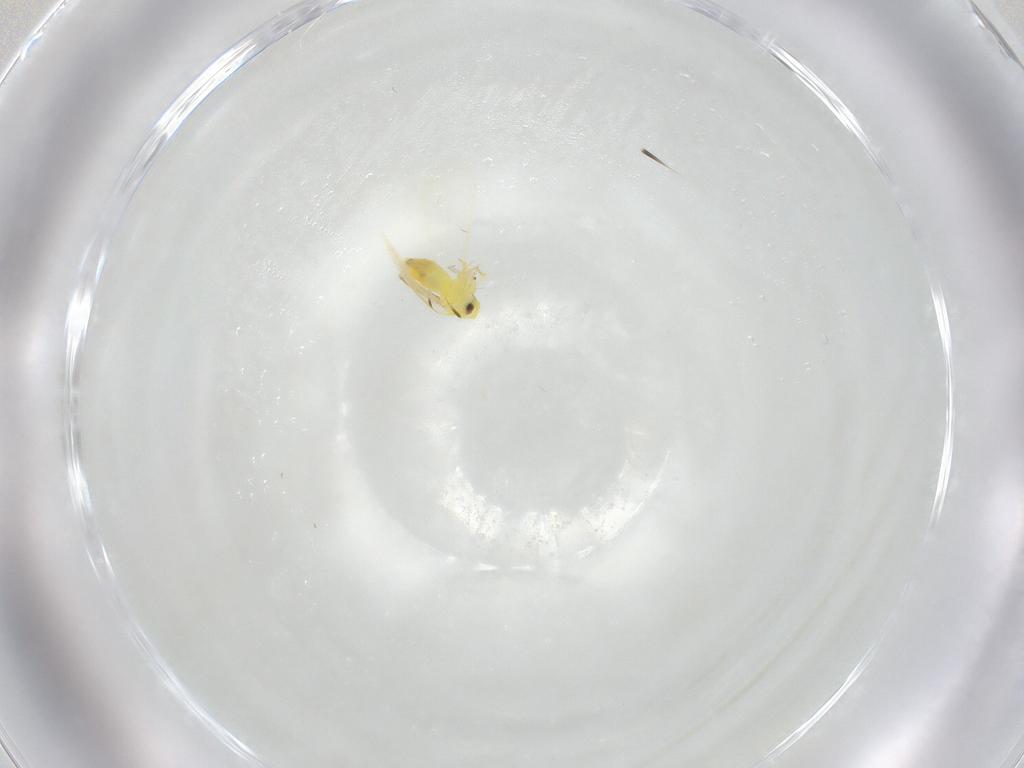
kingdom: Animalia
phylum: Arthropoda
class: Insecta
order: Hemiptera
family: Aleyrodidae
